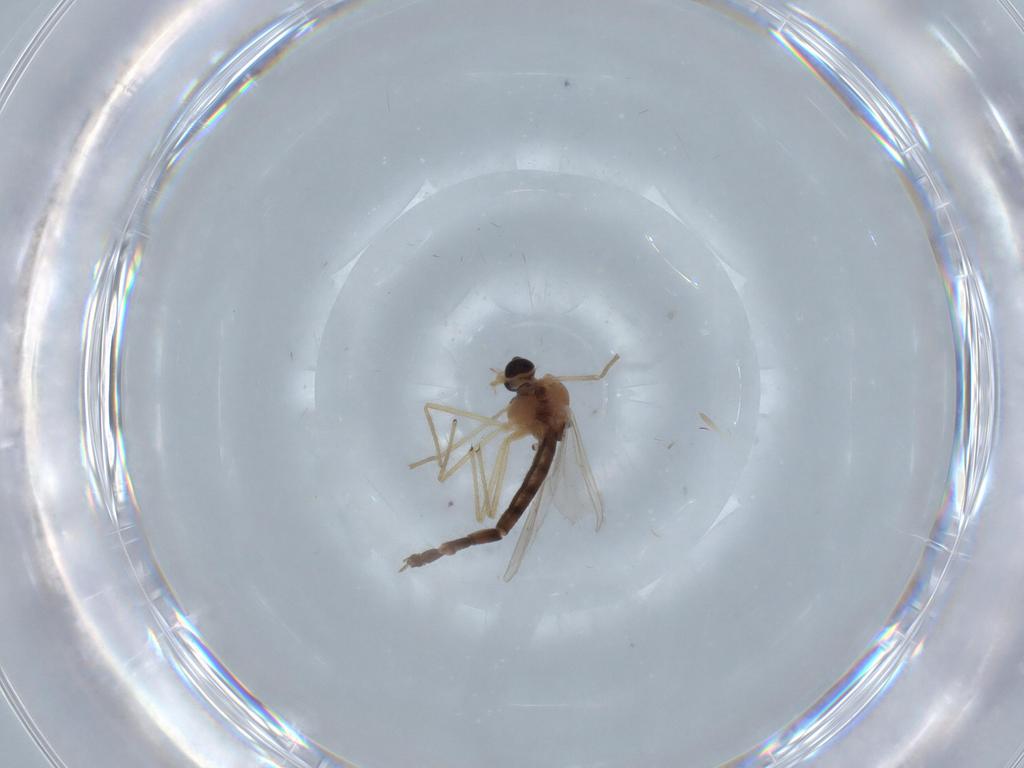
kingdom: Animalia
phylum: Arthropoda
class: Insecta
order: Diptera
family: Chironomidae
